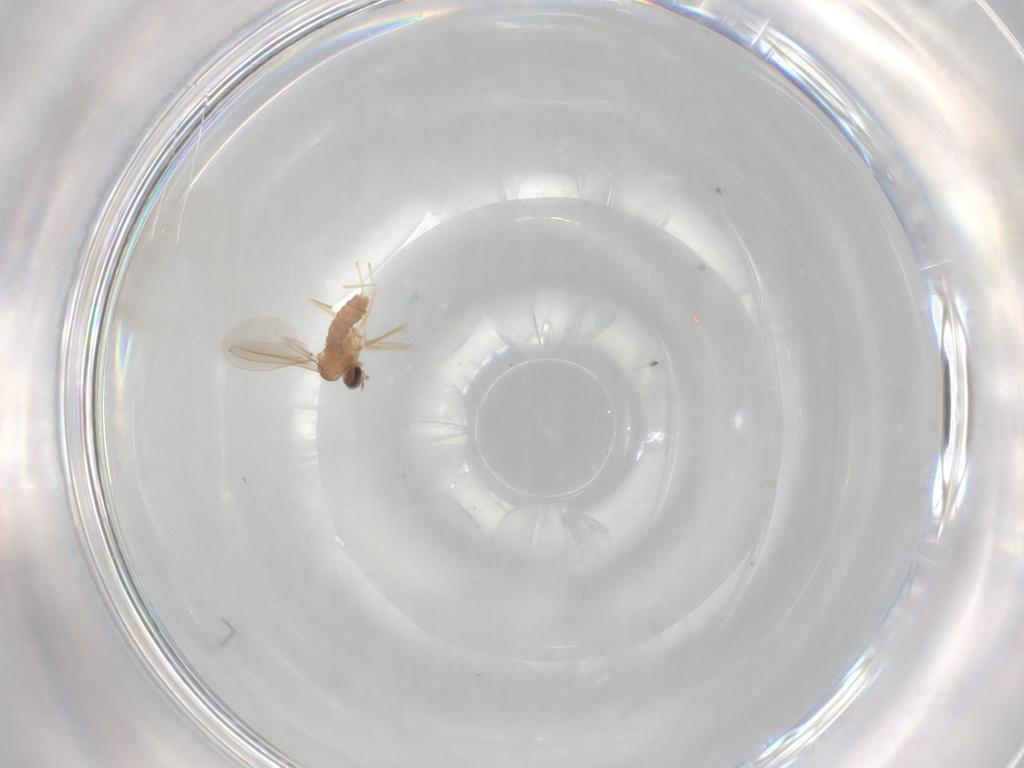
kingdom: Animalia
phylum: Arthropoda
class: Insecta
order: Diptera
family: Cecidomyiidae
